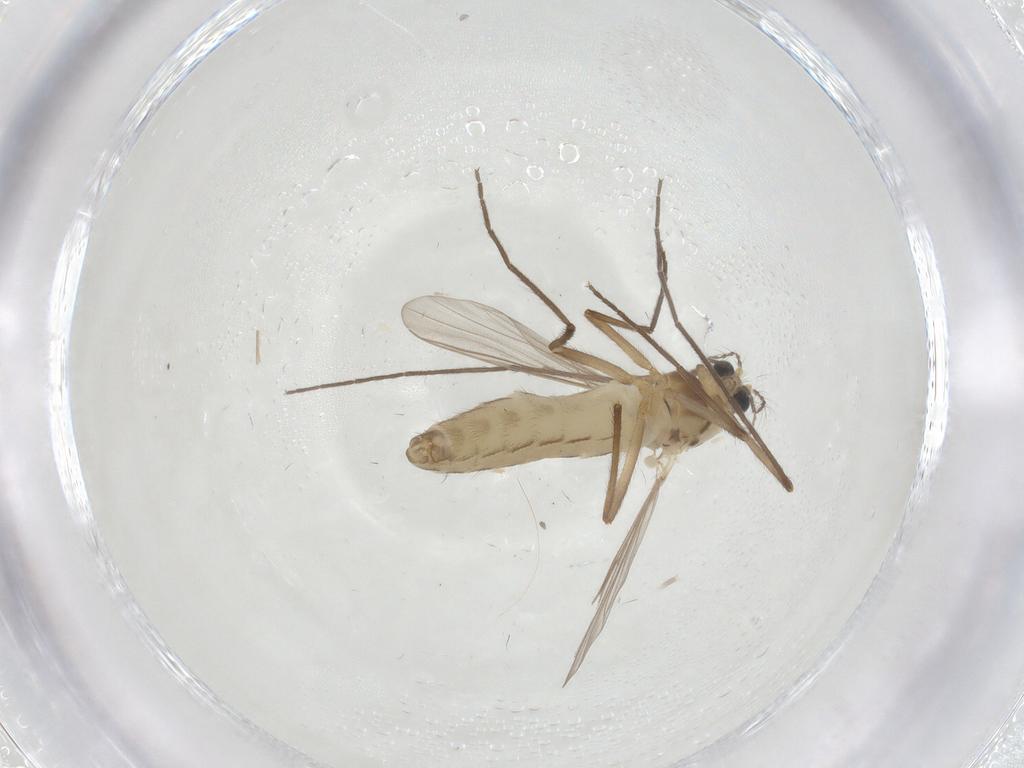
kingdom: Animalia
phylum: Arthropoda
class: Insecta
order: Diptera
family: Chironomidae
